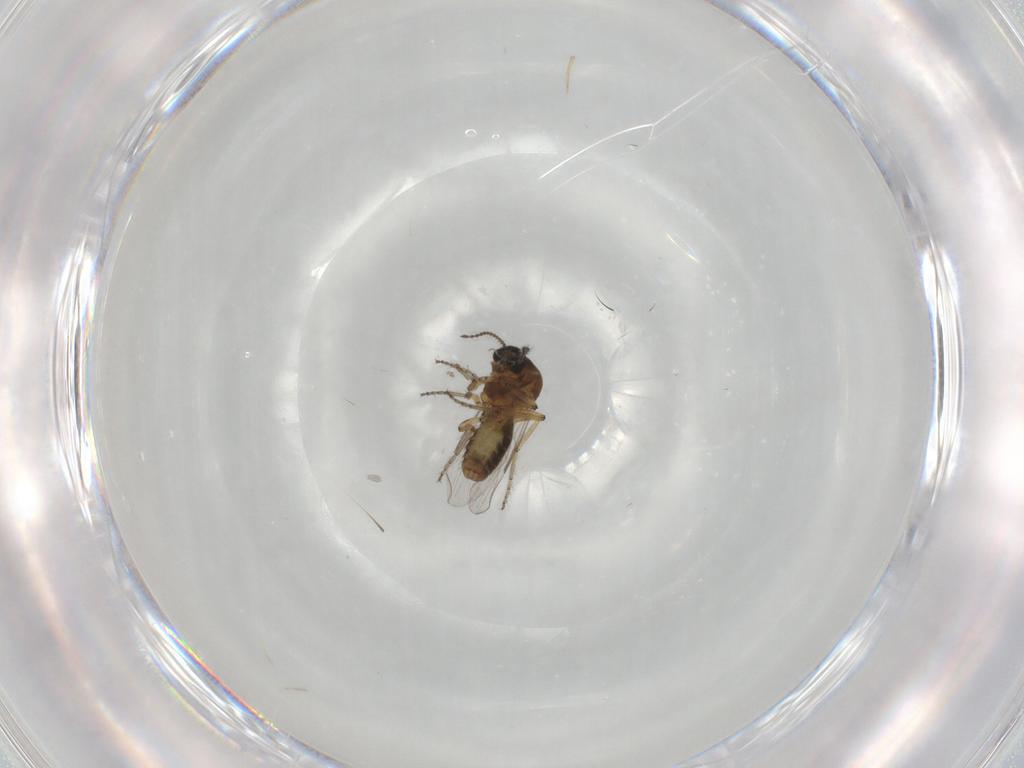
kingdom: Animalia
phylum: Arthropoda
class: Insecta
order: Diptera
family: Ceratopogonidae
